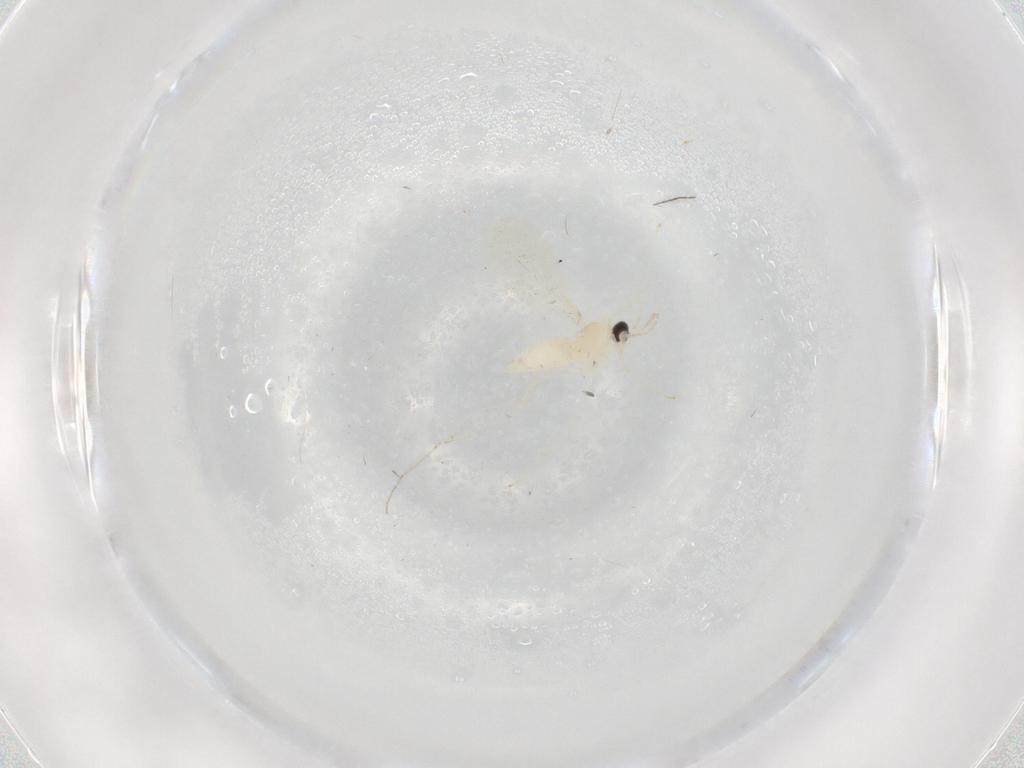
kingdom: Animalia
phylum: Arthropoda
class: Insecta
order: Diptera
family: Cecidomyiidae
